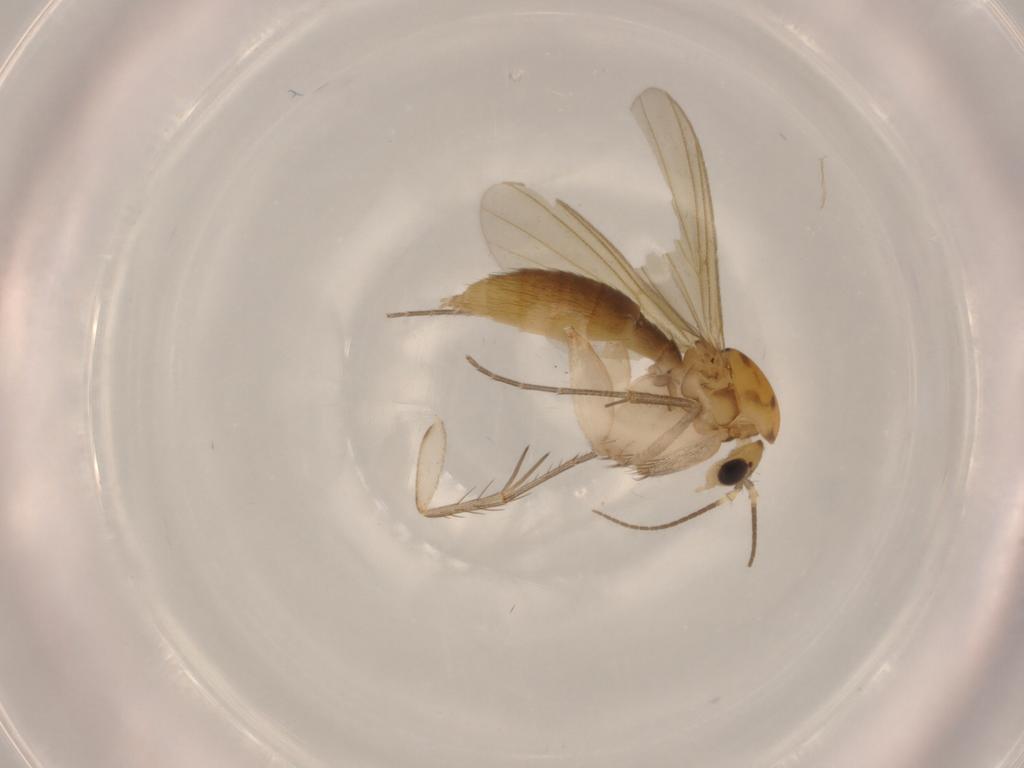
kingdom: Animalia
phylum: Arthropoda
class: Insecta
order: Diptera
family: Mycetophilidae
